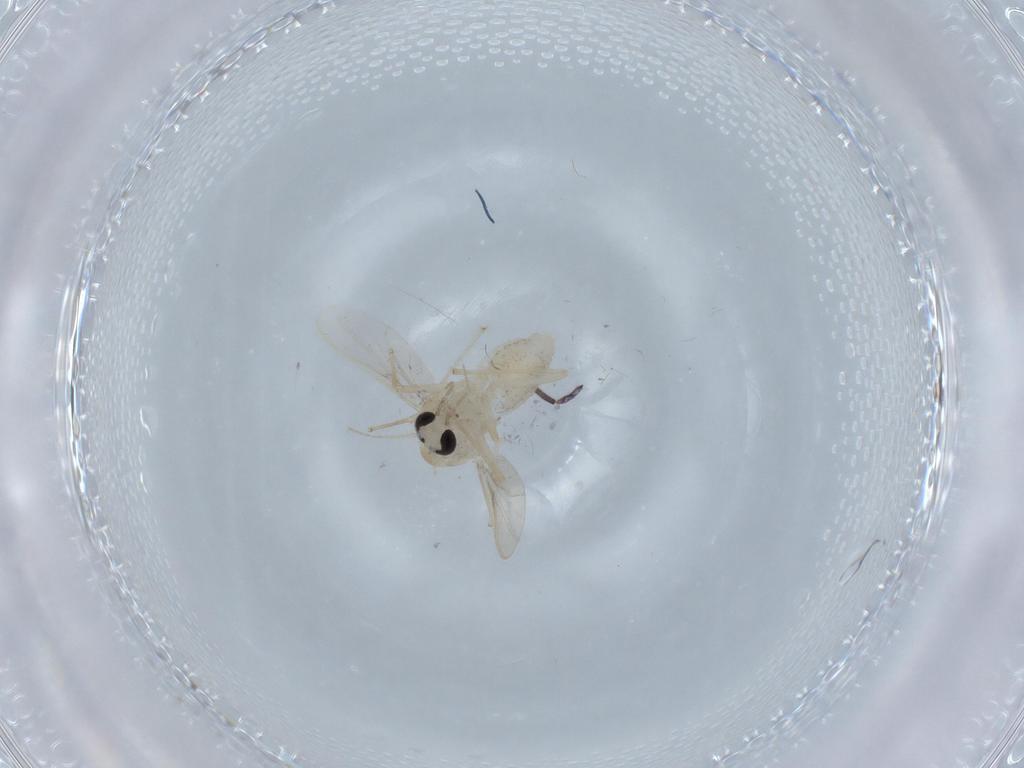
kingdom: Animalia
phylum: Arthropoda
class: Insecta
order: Diptera
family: Chironomidae
